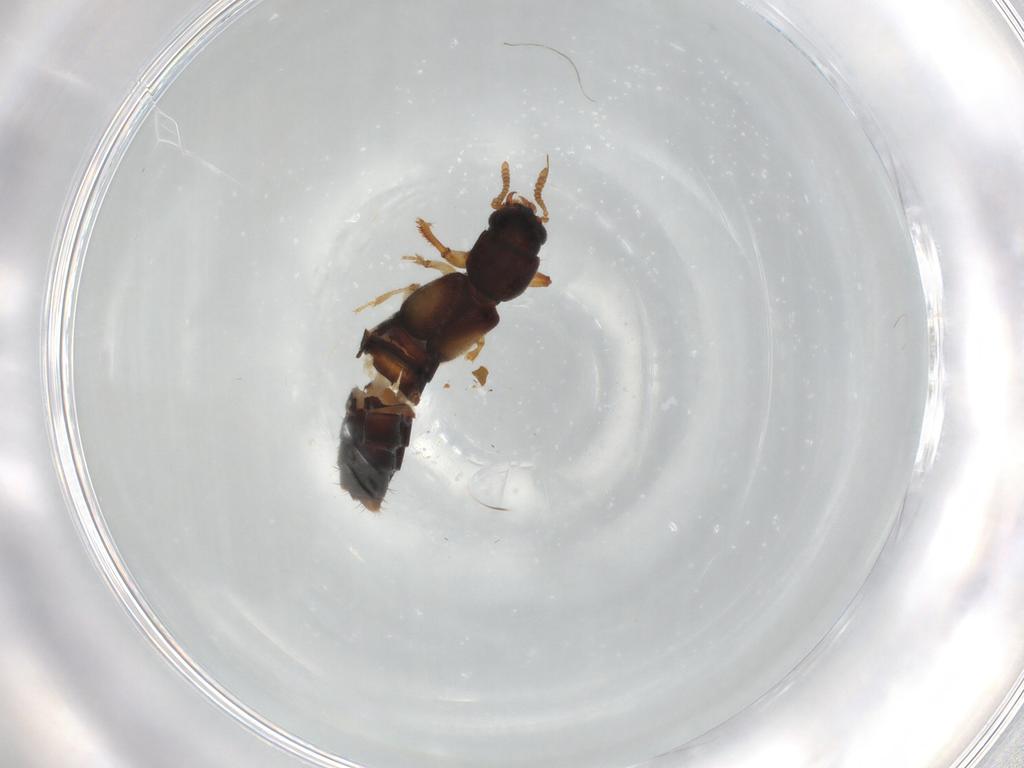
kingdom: Animalia
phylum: Arthropoda
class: Insecta
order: Coleoptera
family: Staphylinidae
